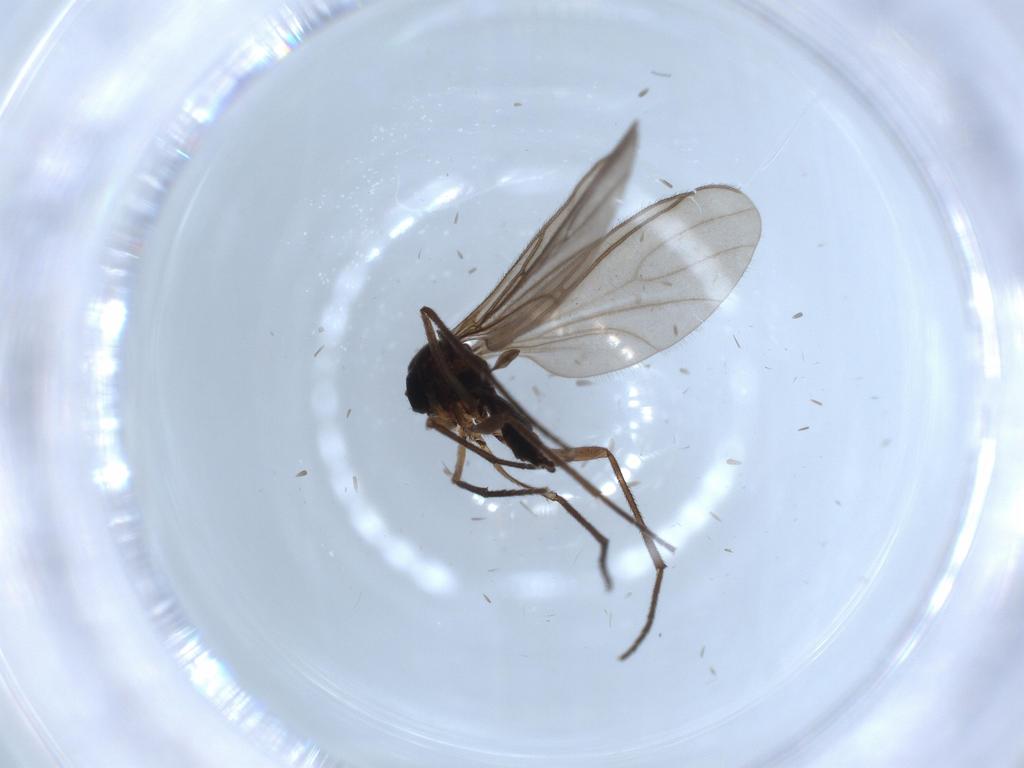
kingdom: Animalia
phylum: Arthropoda
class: Insecta
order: Diptera
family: Sciaridae
